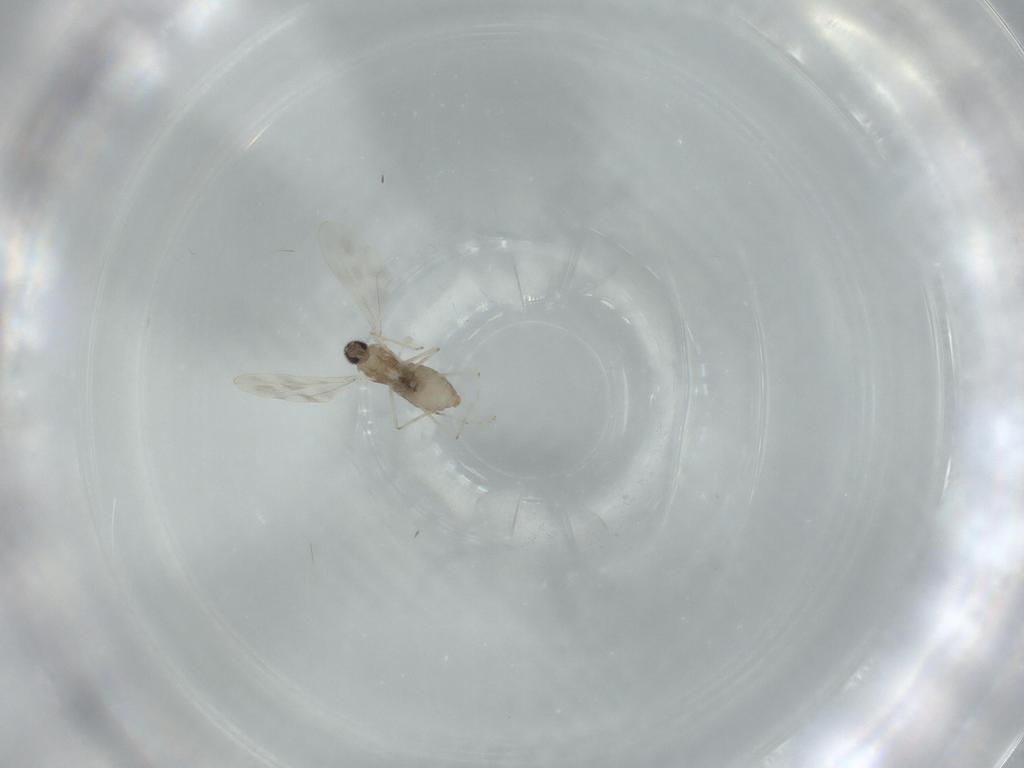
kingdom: Animalia
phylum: Arthropoda
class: Insecta
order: Diptera
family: Cecidomyiidae
